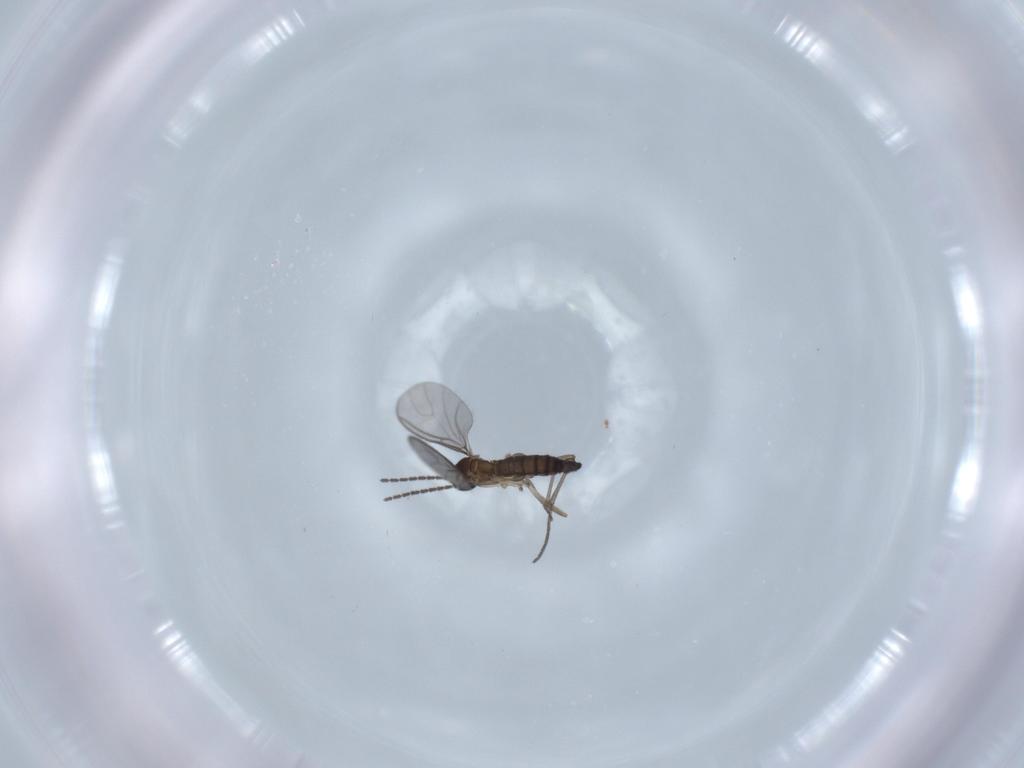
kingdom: Animalia
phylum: Arthropoda
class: Insecta
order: Diptera
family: Sciaridae
